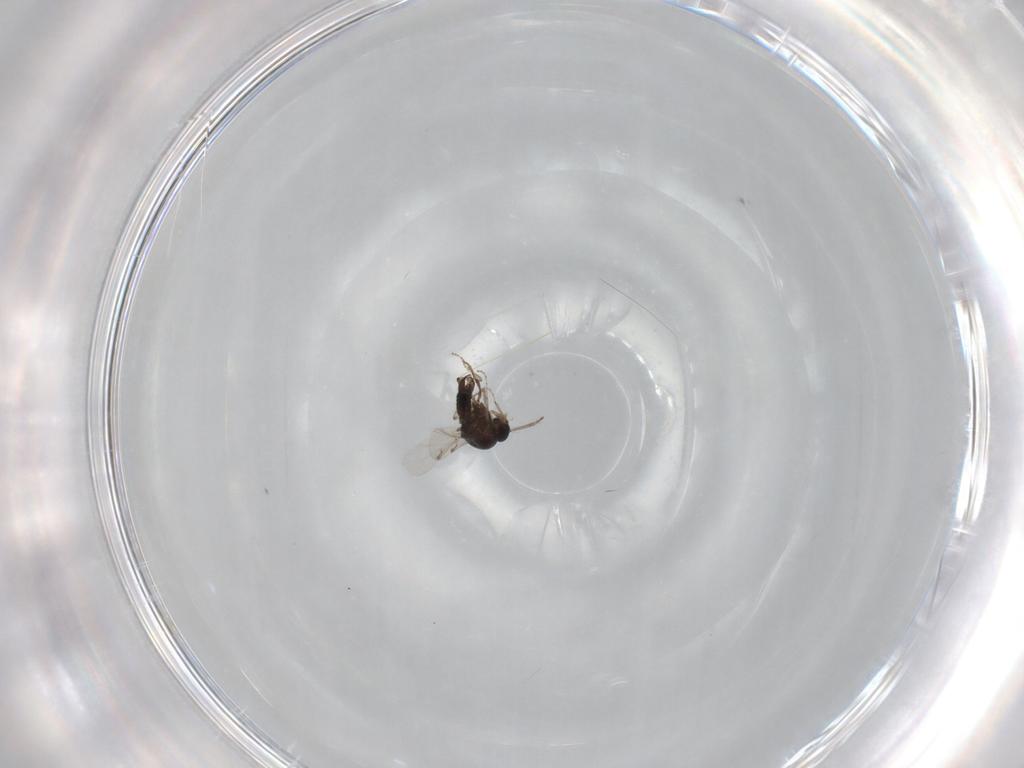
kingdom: Animalia
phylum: Arthropoda
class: Insecta
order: Diptera
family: Ceratopogonidae
